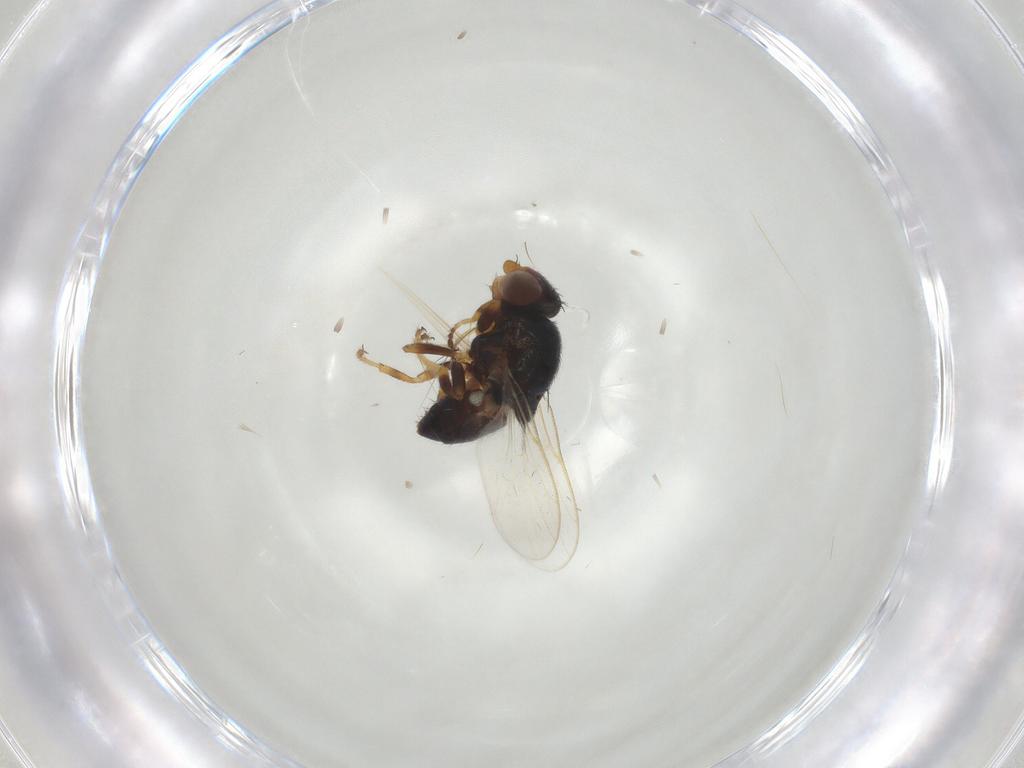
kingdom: Animalia
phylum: Arthropoda
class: Insecta
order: Diptera
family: Chloropidae
